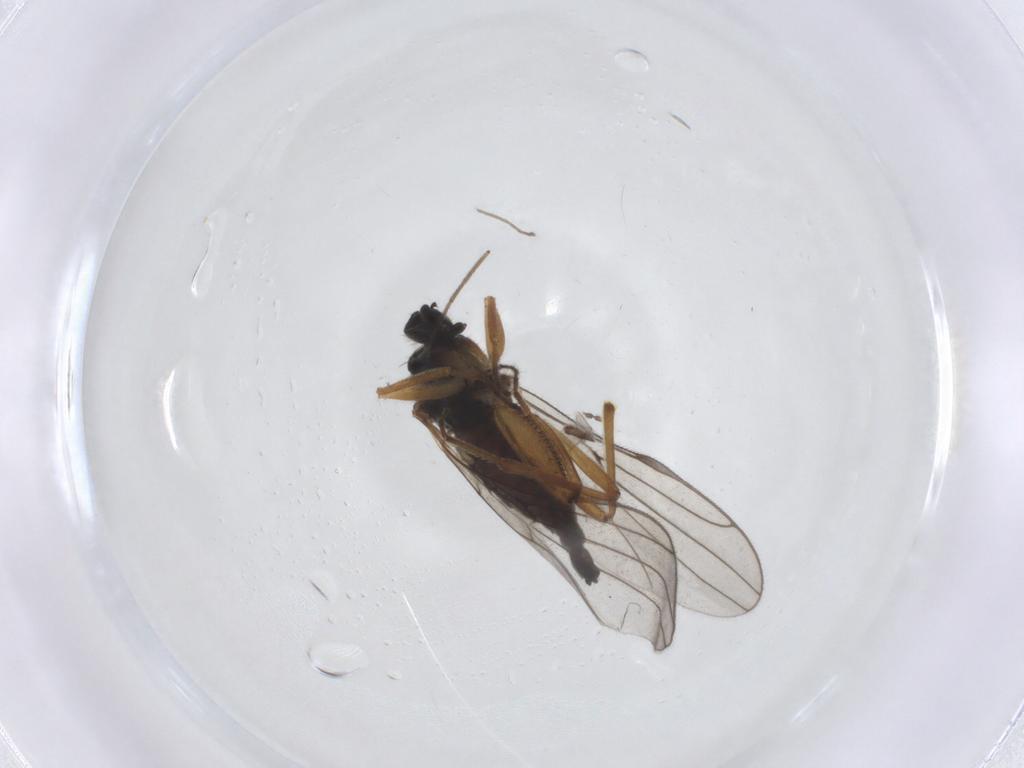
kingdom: Animalia
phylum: Arthropoda
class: Insecta
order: Diptera
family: Hybotidae
